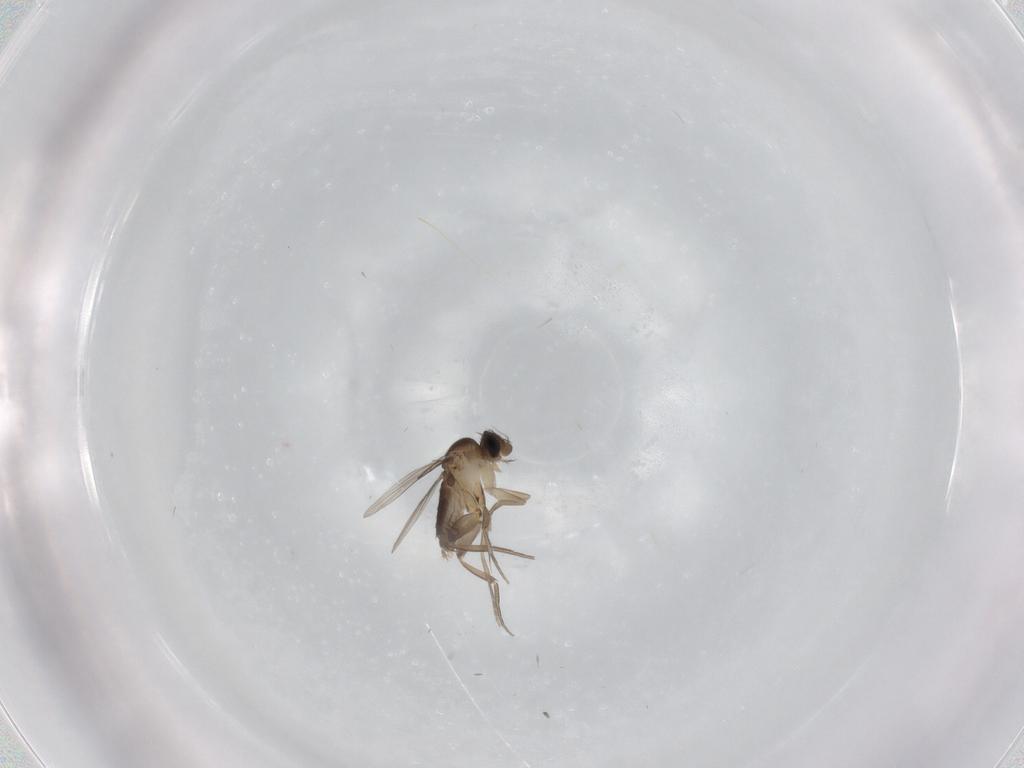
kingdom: Animalia
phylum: Arthropoda
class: Insecta
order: Diptera
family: Phoridae
